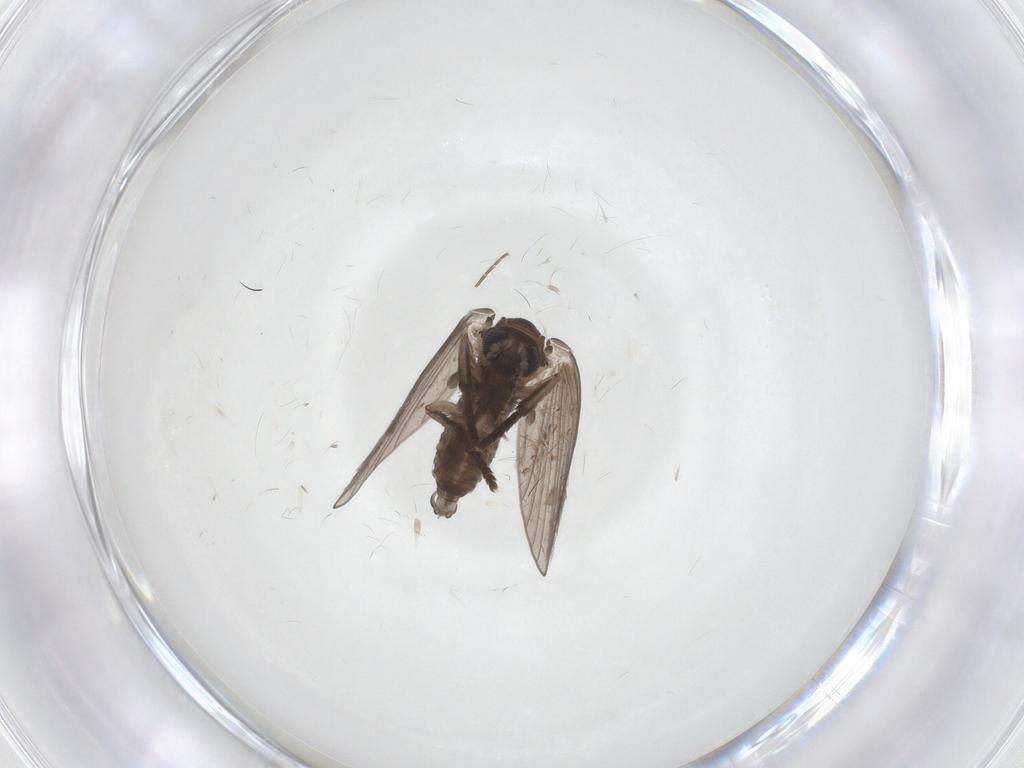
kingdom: Animalia
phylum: Arthropoda
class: Insecta
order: Diptera
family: Psychodidae
